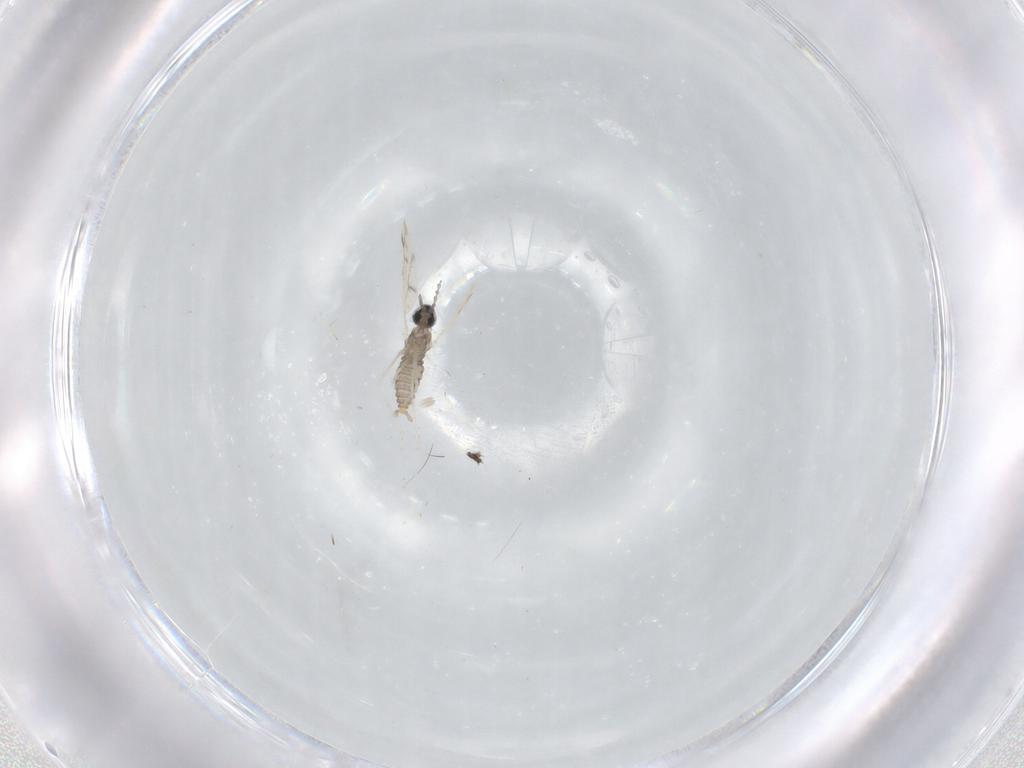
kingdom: Animalia
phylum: Arthropoda
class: Insecta
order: Diptera
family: Cecidomyiidae
